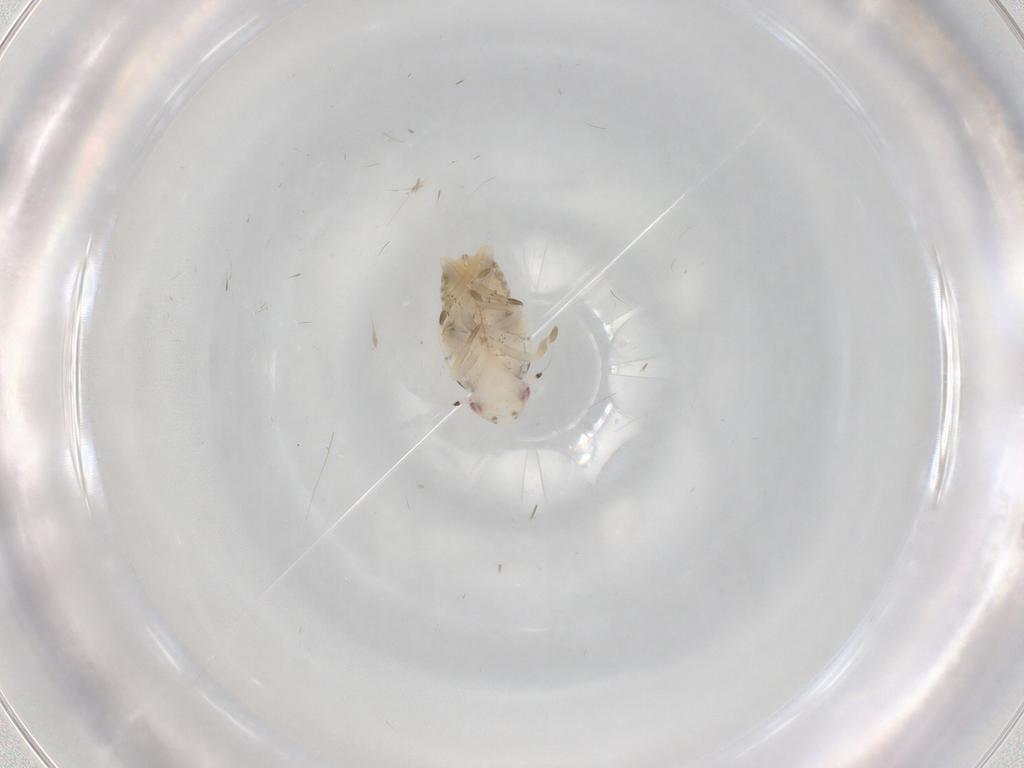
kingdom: Animalia
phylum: Arthropoda
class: Insecta
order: Hemiptera
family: Flatidae
